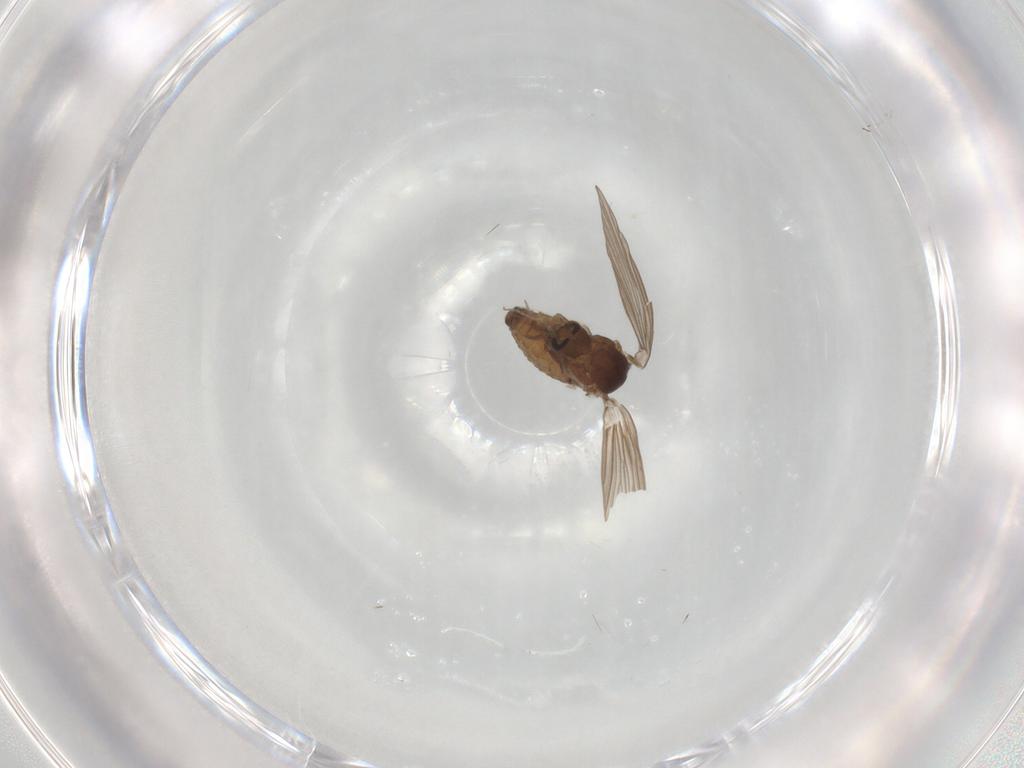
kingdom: Animalia
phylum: Arthropoda
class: Insecta
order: Diptera
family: Psychodidae
